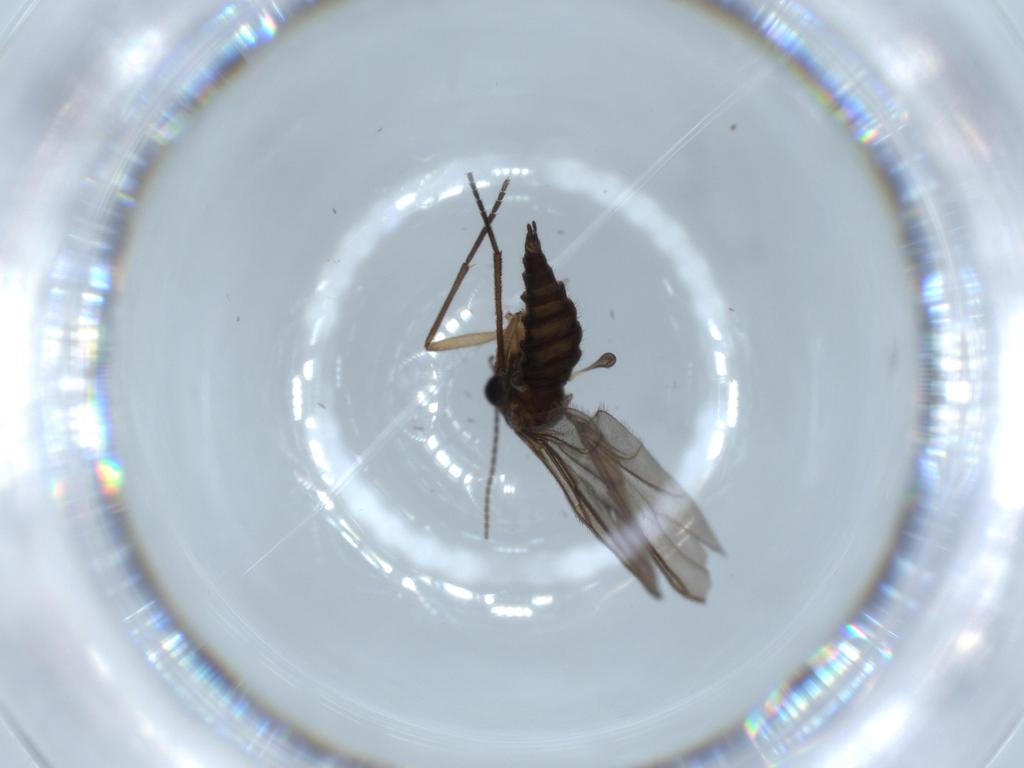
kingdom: Animalia
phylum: Arthropoda
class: Insecta
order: Diptera
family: Sciaridae
